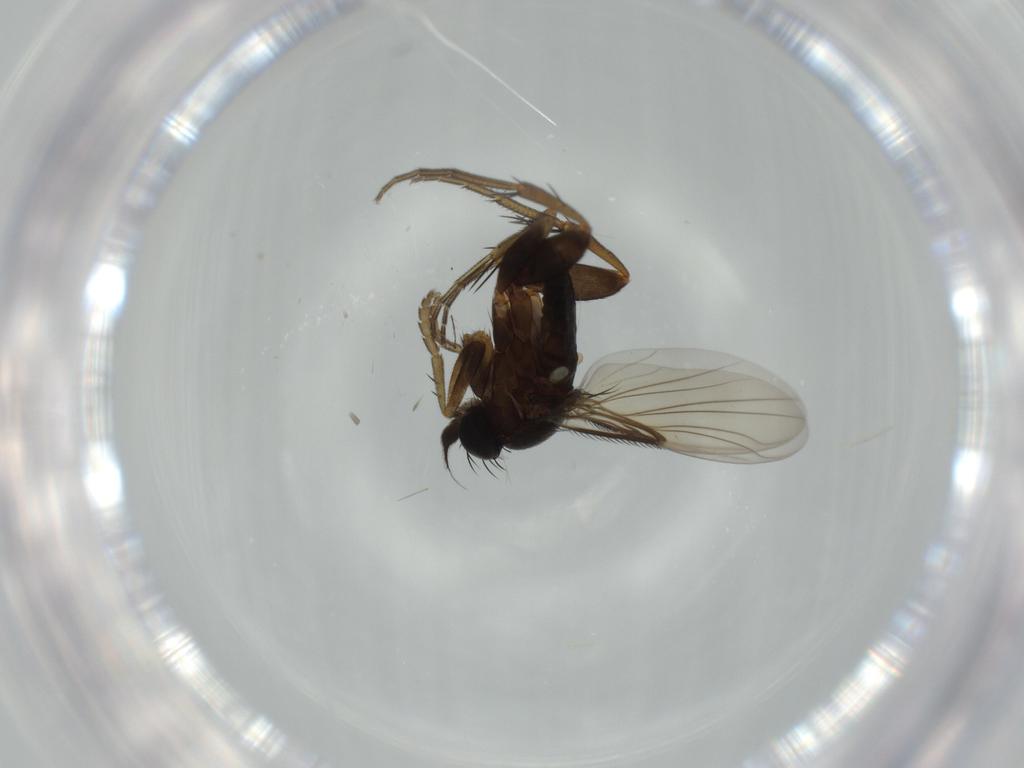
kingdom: Animalia
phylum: Arthropoda
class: Insecta
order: Diptera
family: Phoridae
